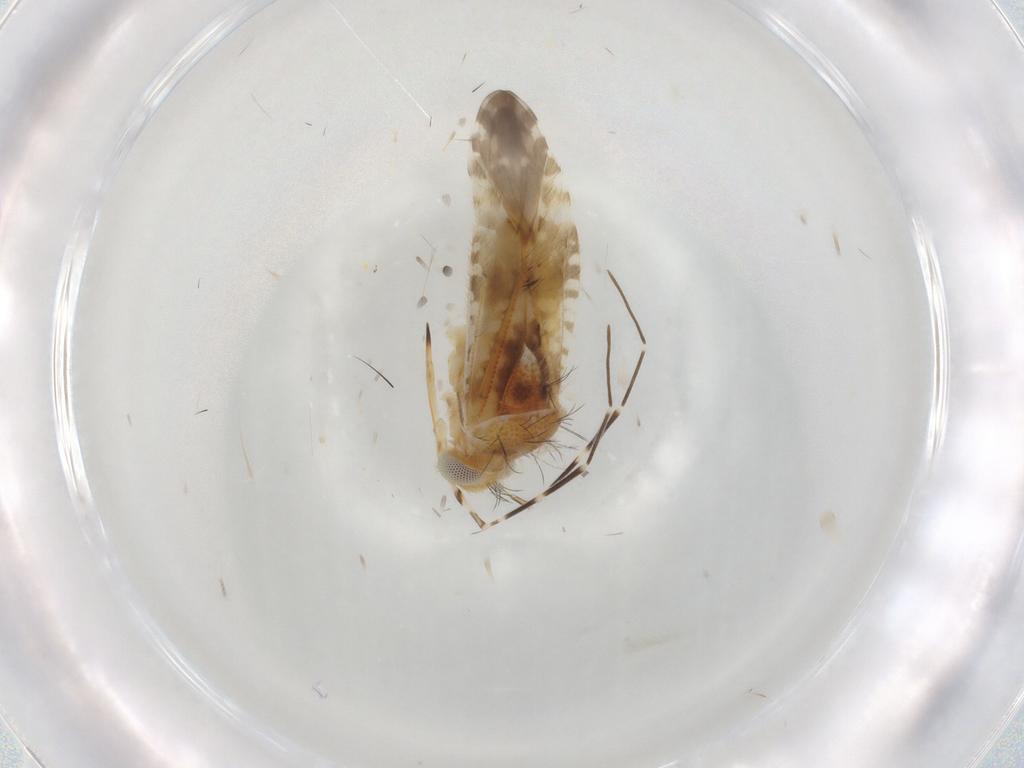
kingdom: Animalia
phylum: Arthropoda
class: Insecta
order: Hemiptera
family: Miridae
